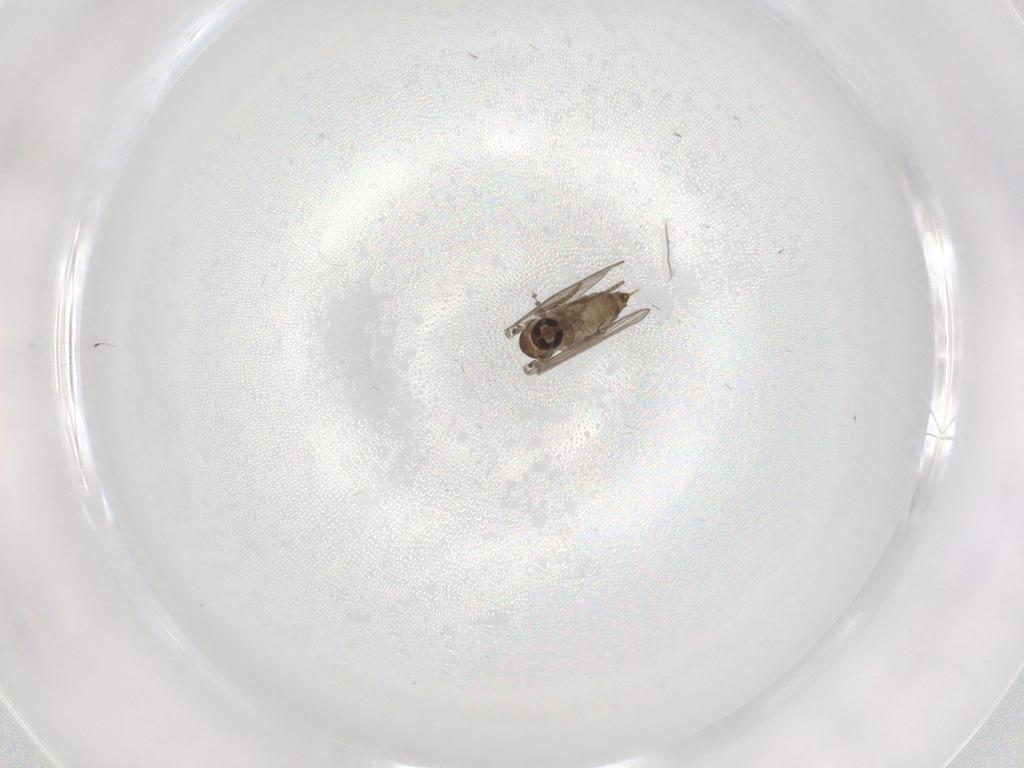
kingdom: Animalia
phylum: Arthropoda
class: Insecta
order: Diptera
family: Psychodidae
